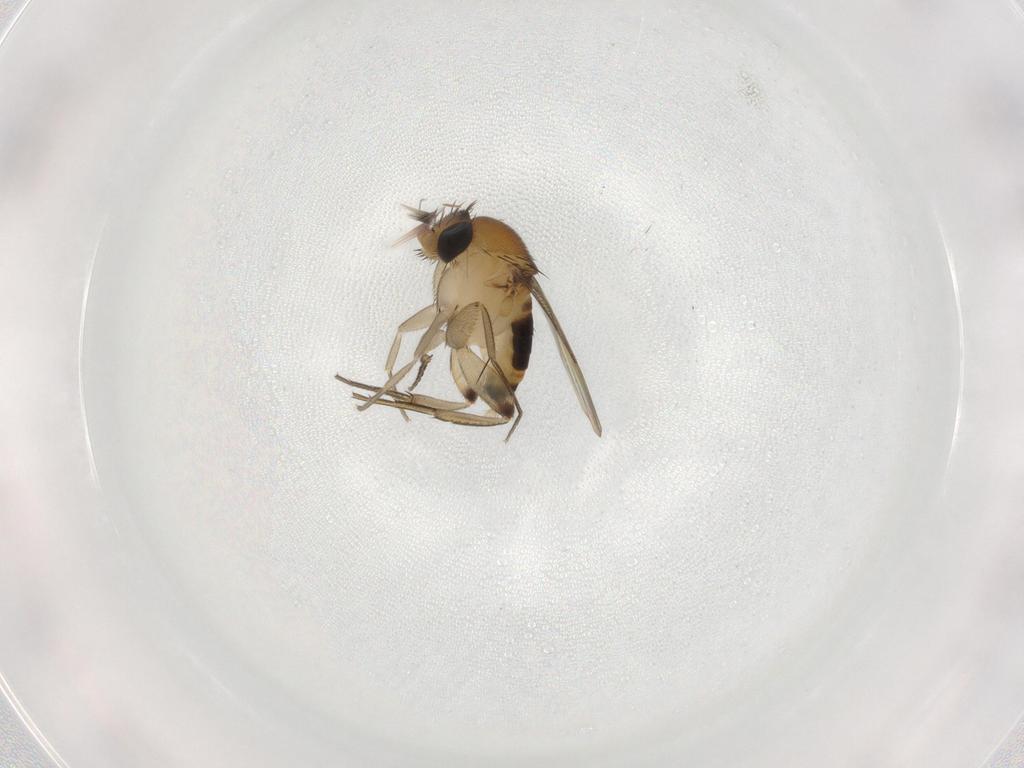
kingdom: Animalia
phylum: Arthropoda
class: Insecta
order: Diptera
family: Phoridae
